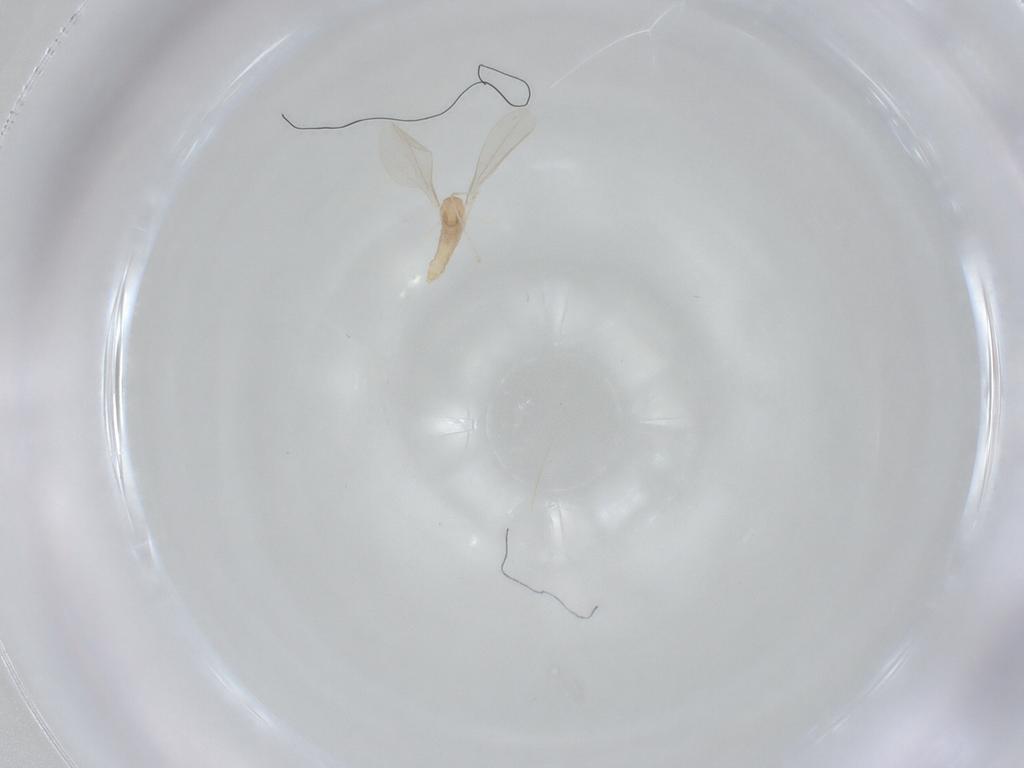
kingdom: Animalia
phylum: Arthropoda
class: Insecta
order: Diptera
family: Cecidomyiidae
